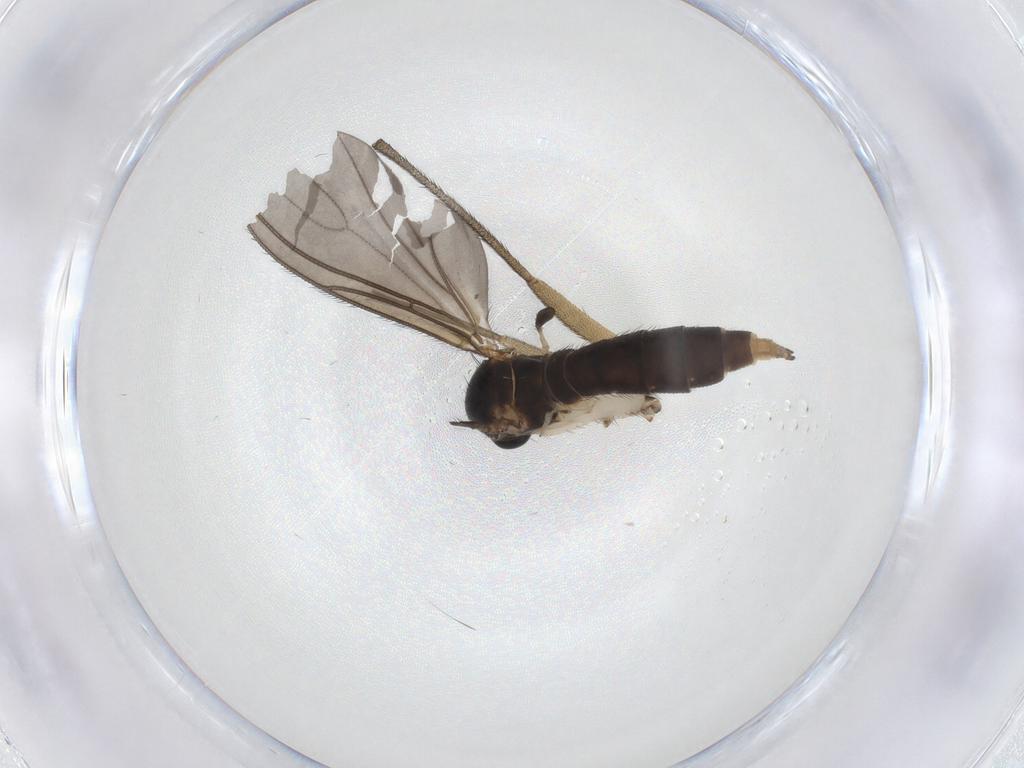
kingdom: Animalia
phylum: Arthropoda
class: Insecta
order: Diptera
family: Sciaridae
